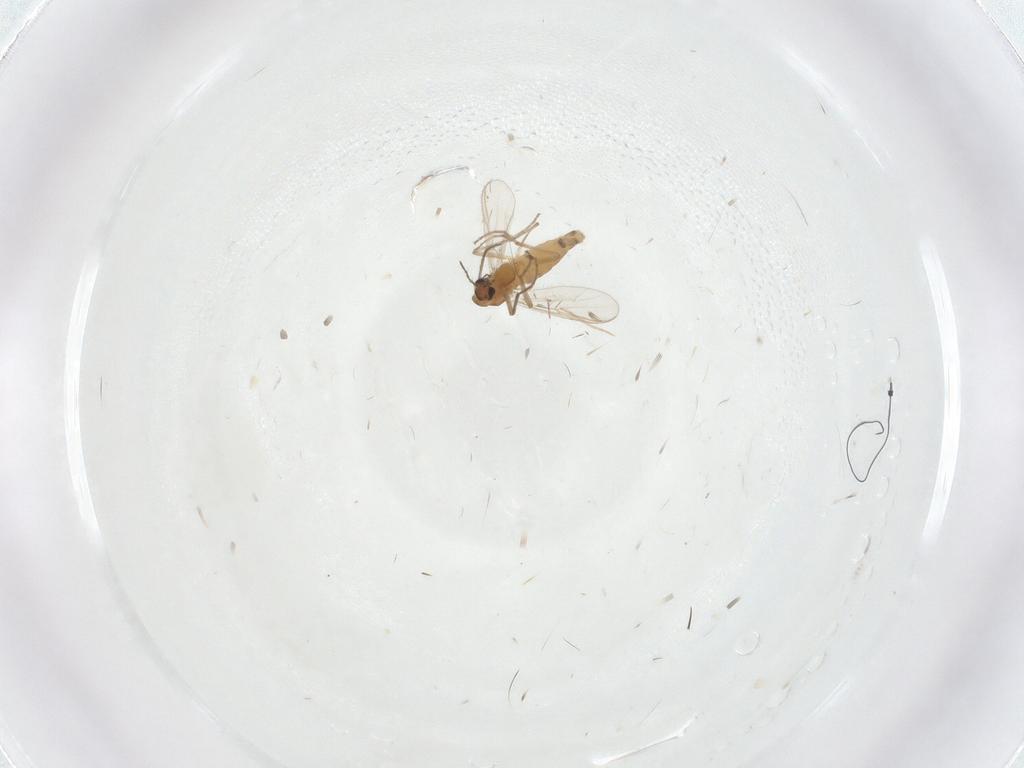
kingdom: Animalia
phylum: Arthropoda
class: Insecta
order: Diptera
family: Chironomidae
